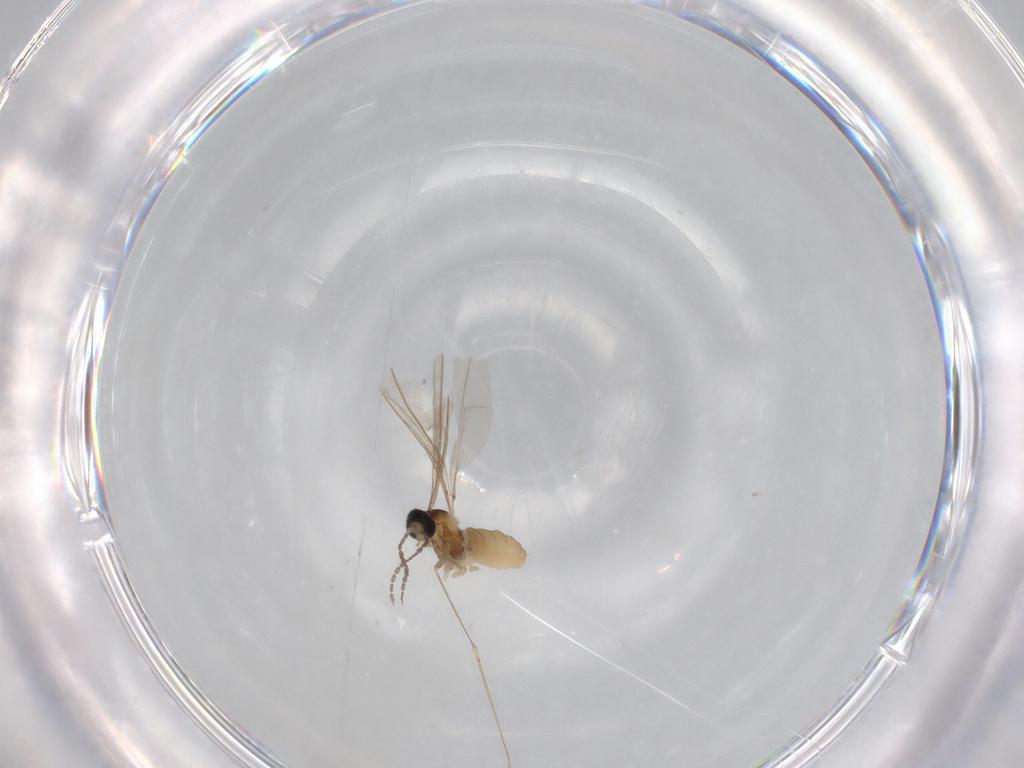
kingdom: Animalia
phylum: Arthropoda
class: Insecta
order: Diptera
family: Cecidomyiidae
